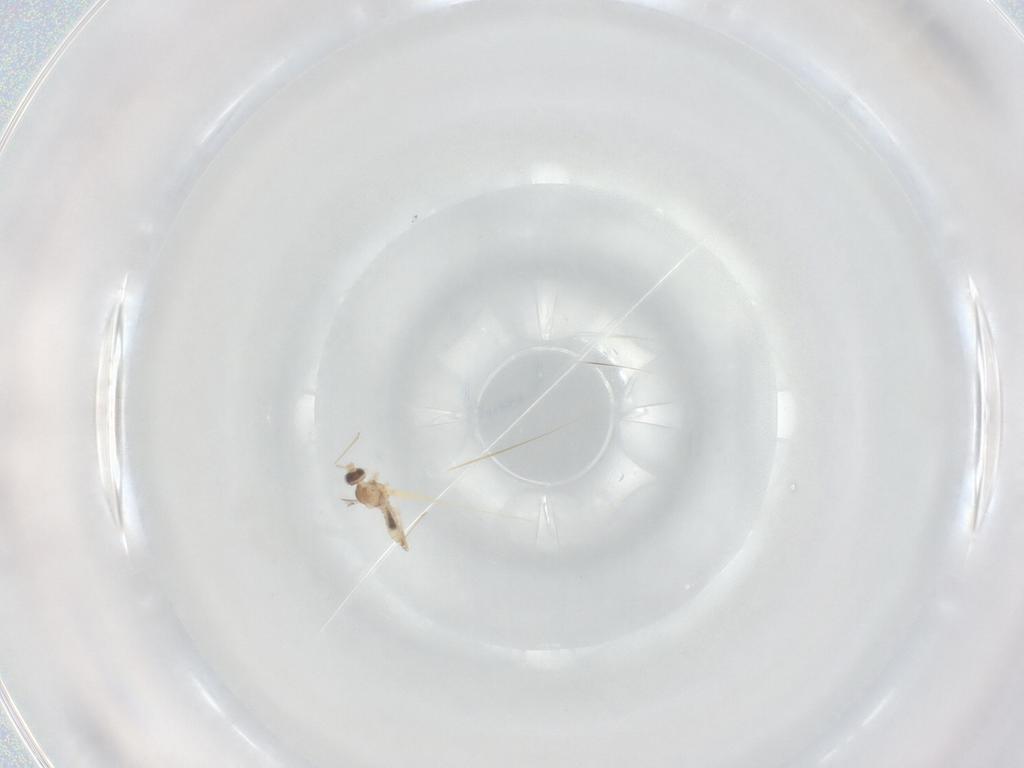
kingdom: Animalia
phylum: Arthropoda
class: Insecta
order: Diptera
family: Cecidomyiidae
